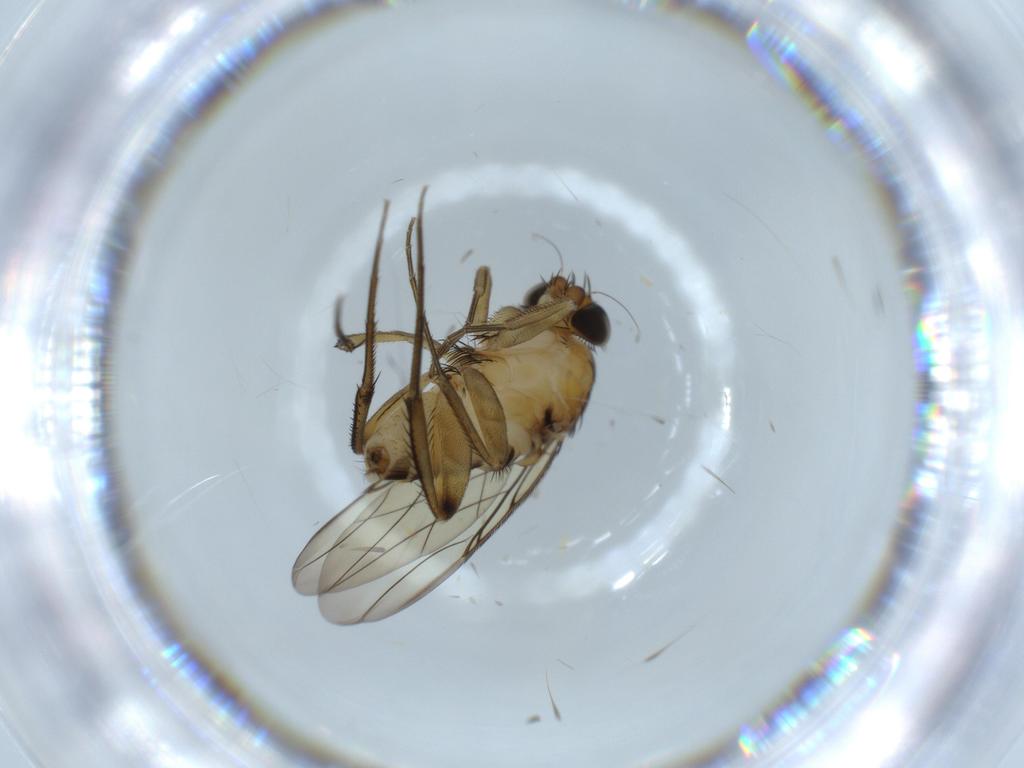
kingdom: Animalia
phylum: Arthropoda
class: Insecta
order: Diptera
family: Phoridae
